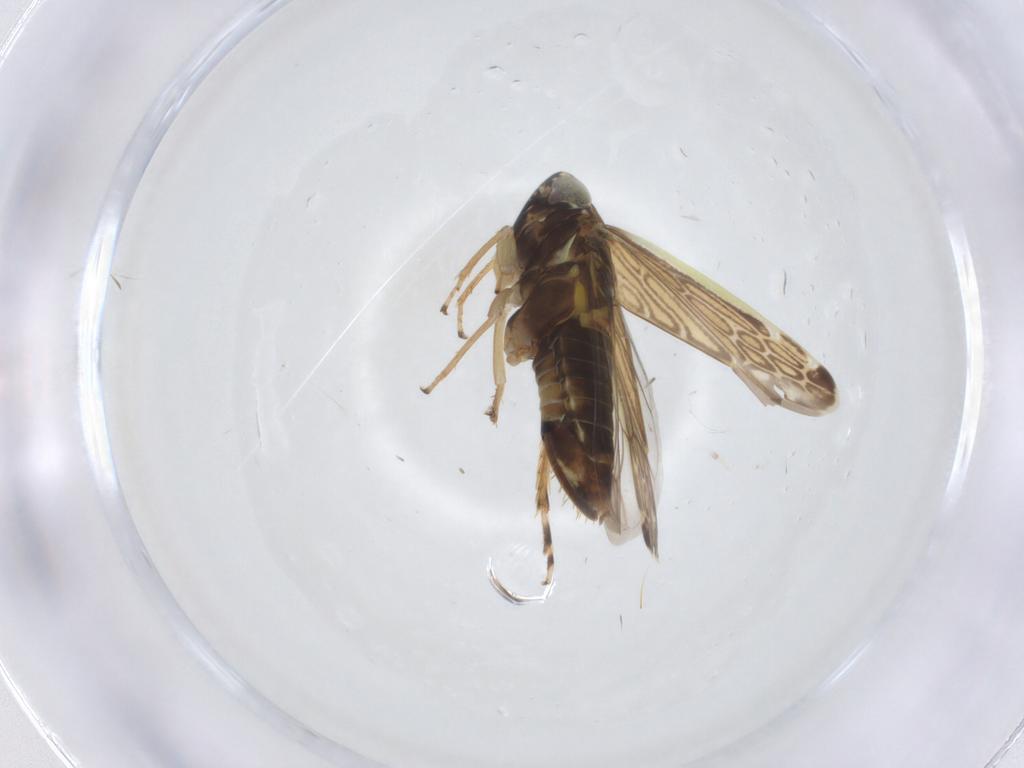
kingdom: Animalia
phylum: Arthropoda
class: Insecta
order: Hemiptera
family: Cicadellidae
